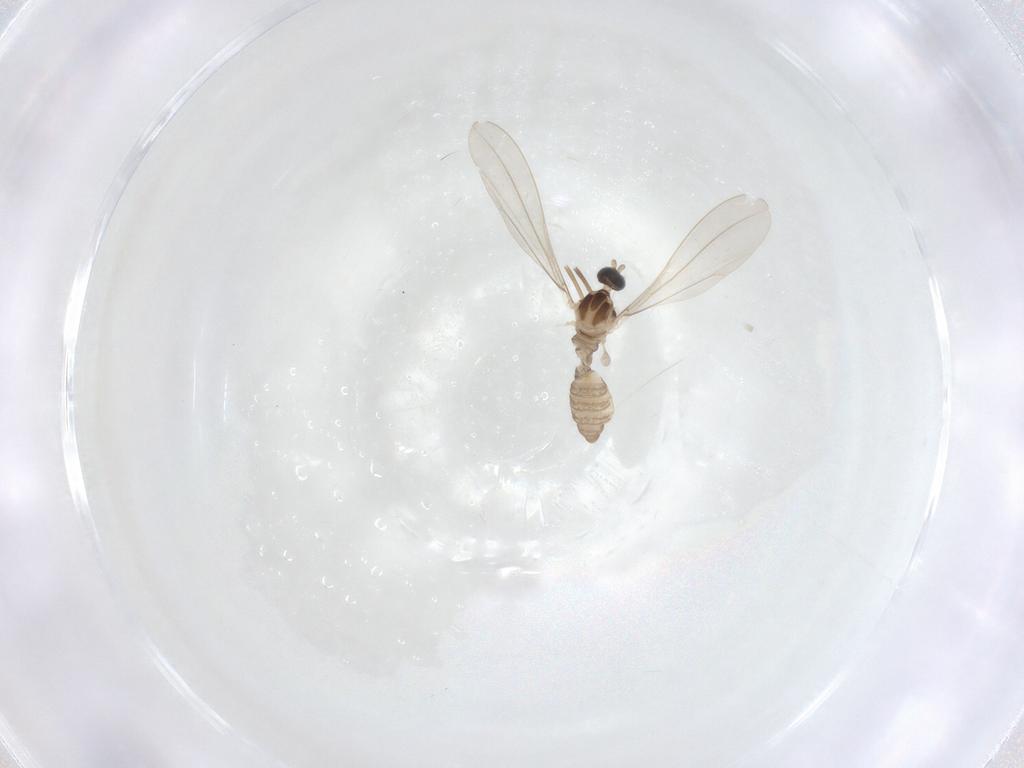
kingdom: Animalia
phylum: Arthropoda
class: Insecta
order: Diptera
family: Cecidomyiidae
